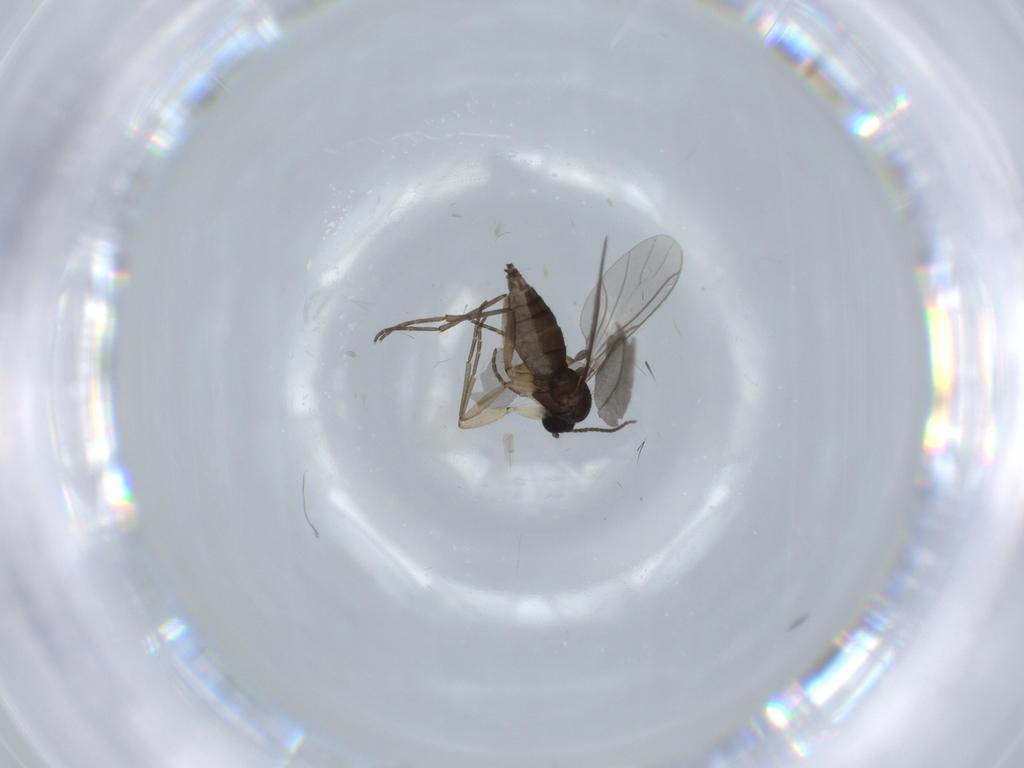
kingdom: Animalia
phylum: Arthropoda
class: Insecta
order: Diptera
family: Sciaridae
